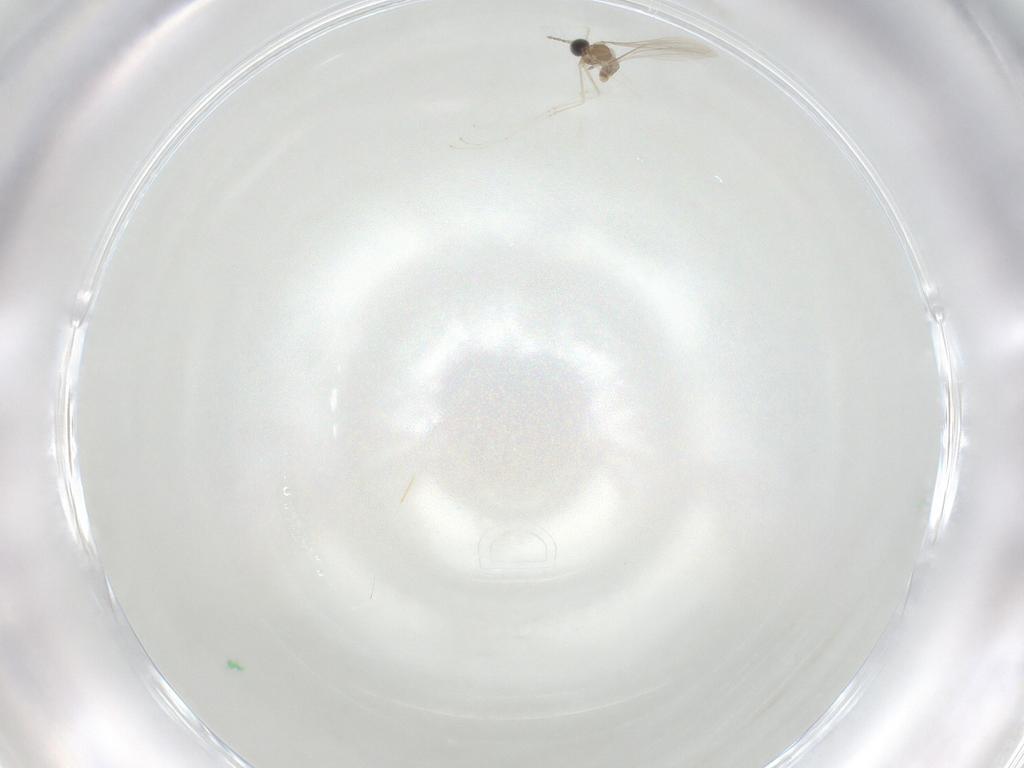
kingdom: Animalia
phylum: Arthropoda
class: Insecta
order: Diptera
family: Cecidomyiidae
